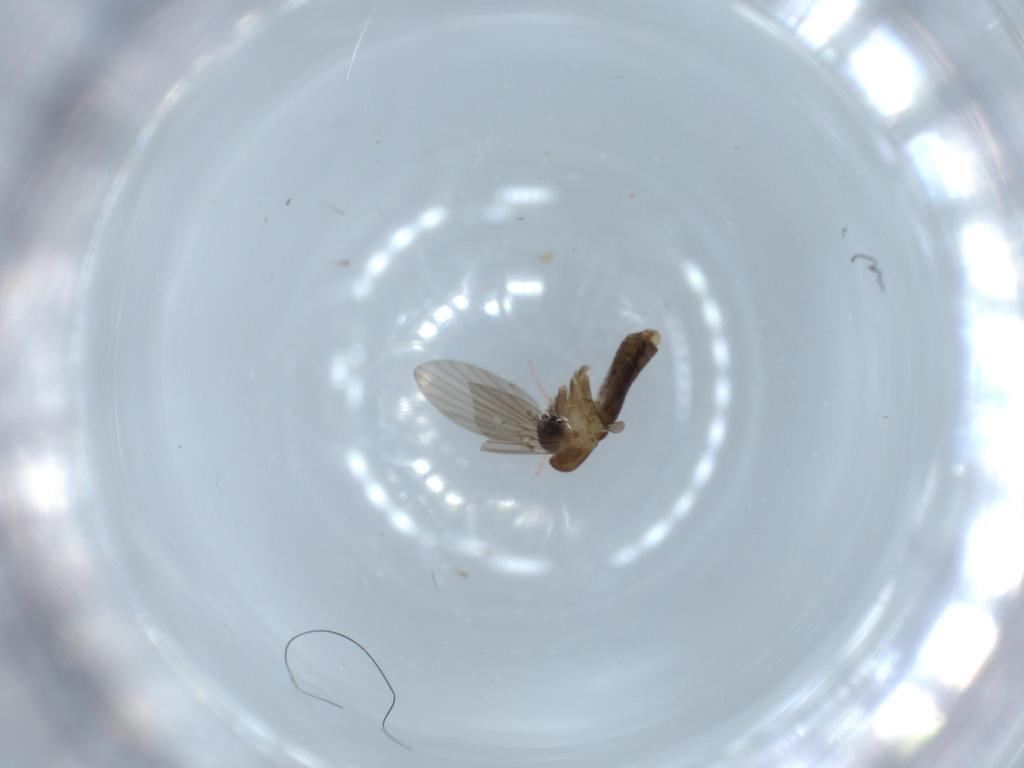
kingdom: Animalia
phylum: Arthropoda
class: Insecta
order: Diptera
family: Psychodidae
